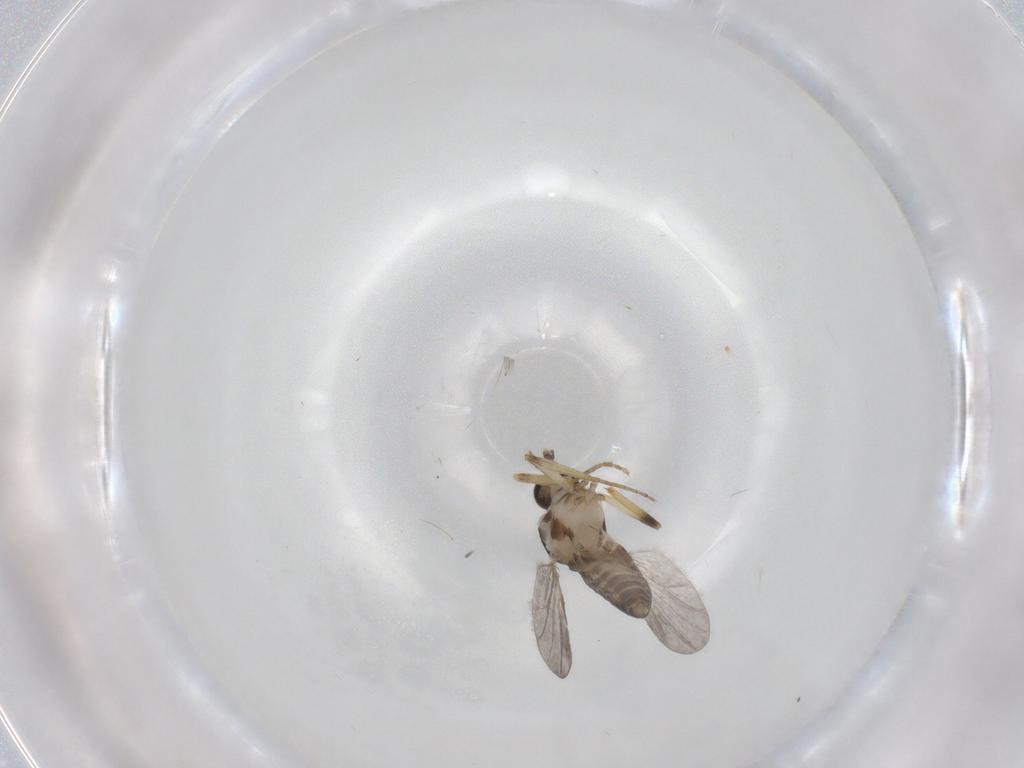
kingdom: Animalia
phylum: Arthropoda
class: Insecta
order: Diptera
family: Ceratopogonidae
